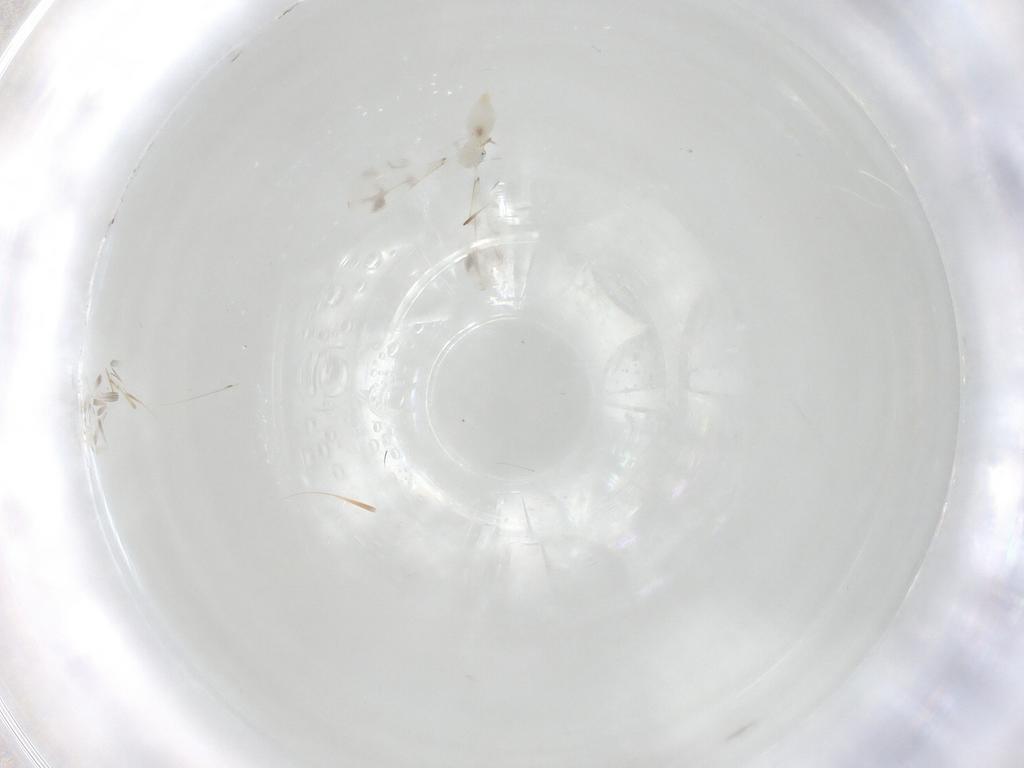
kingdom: Animalia
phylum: Arthropoda
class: Insecta
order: Diptera
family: Cecidomyiidae
